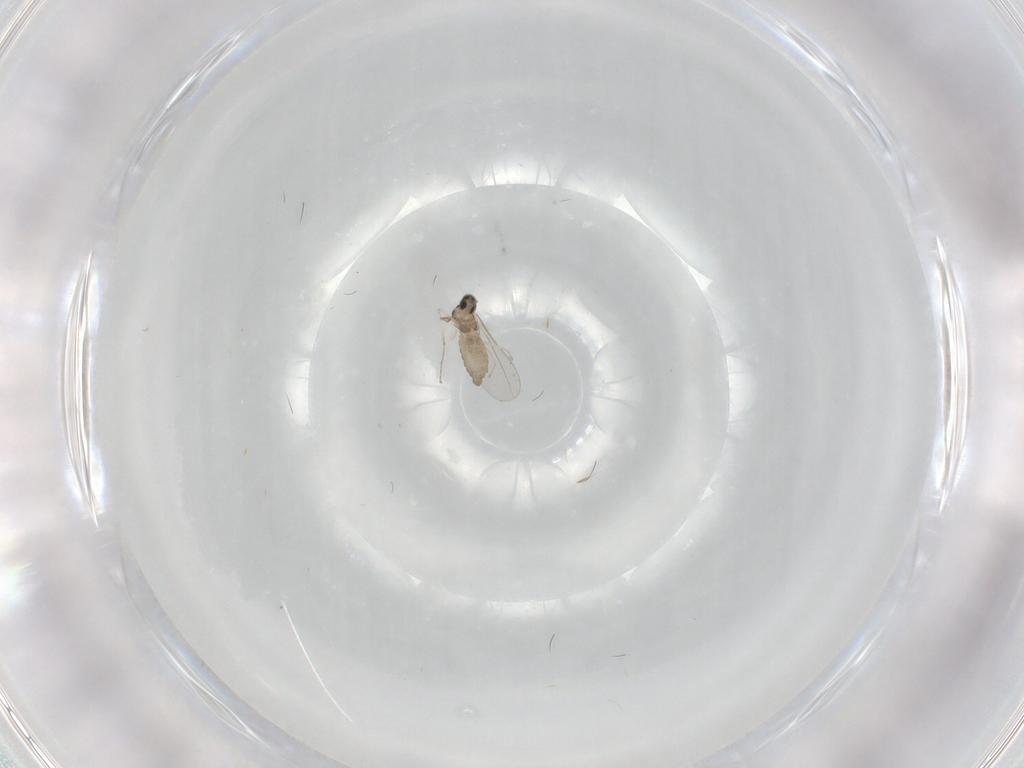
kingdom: Animalia
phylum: Arthropoda
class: Insecta
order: Diptera
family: Cecidomyiidae
